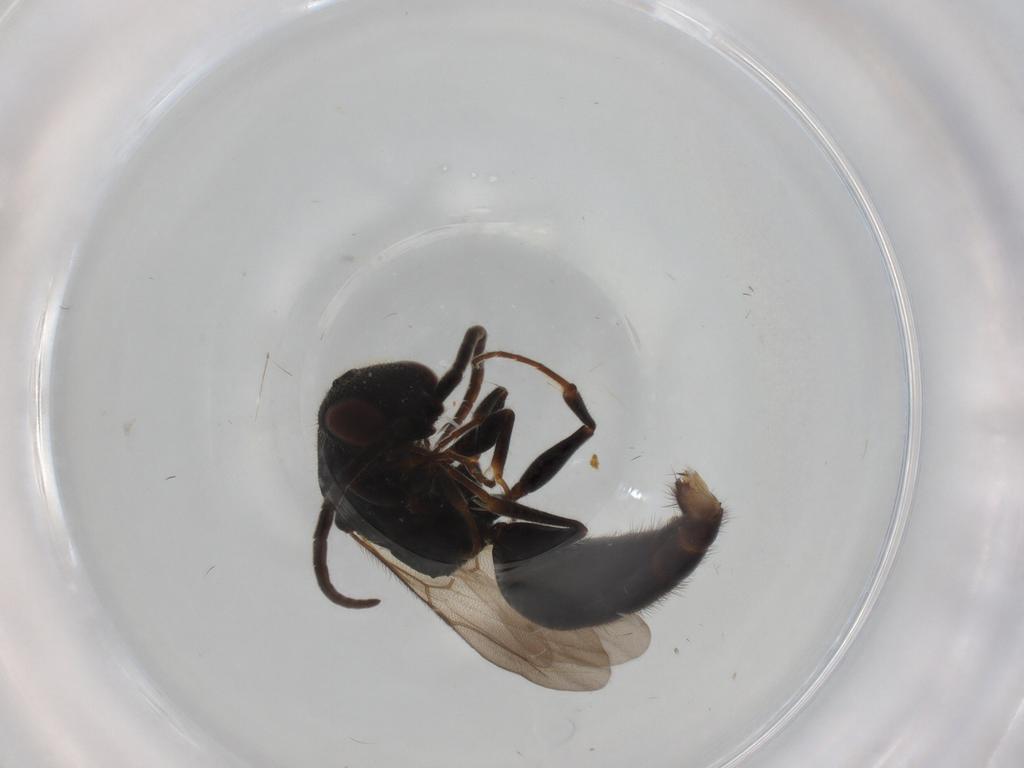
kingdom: Animalia
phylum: Arthropoda
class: Insecta
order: Hymenoptera
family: Bethylidae
